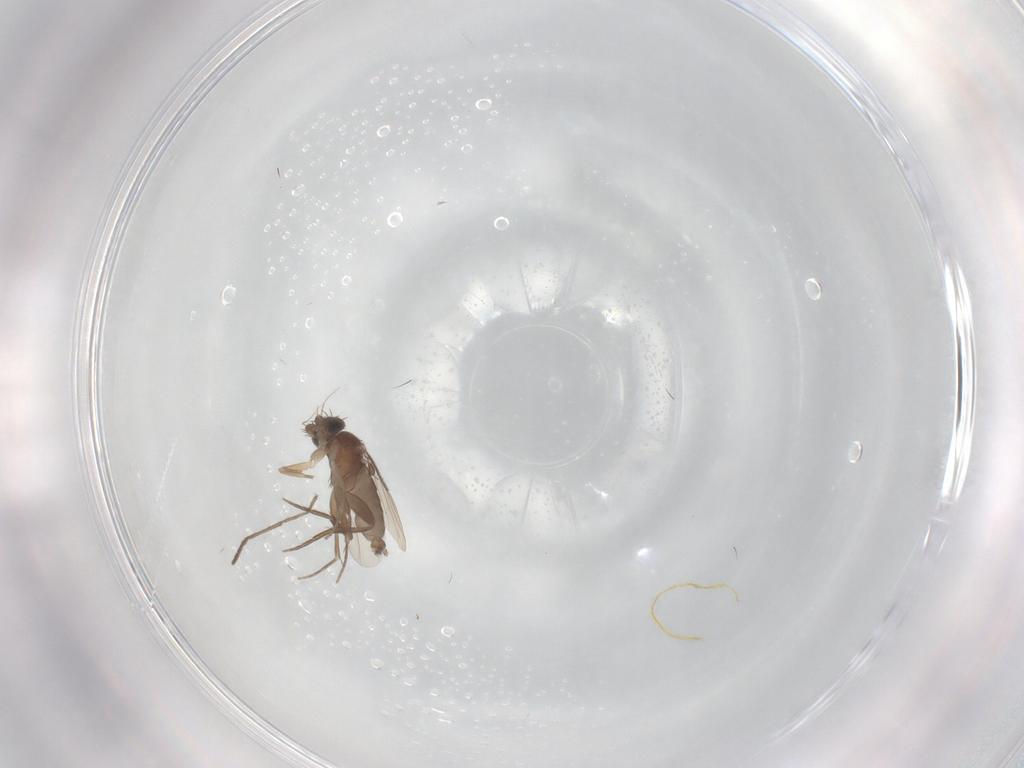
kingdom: Animalia
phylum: Arthropoda
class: Insecta
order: Diptera
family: Phoridae
